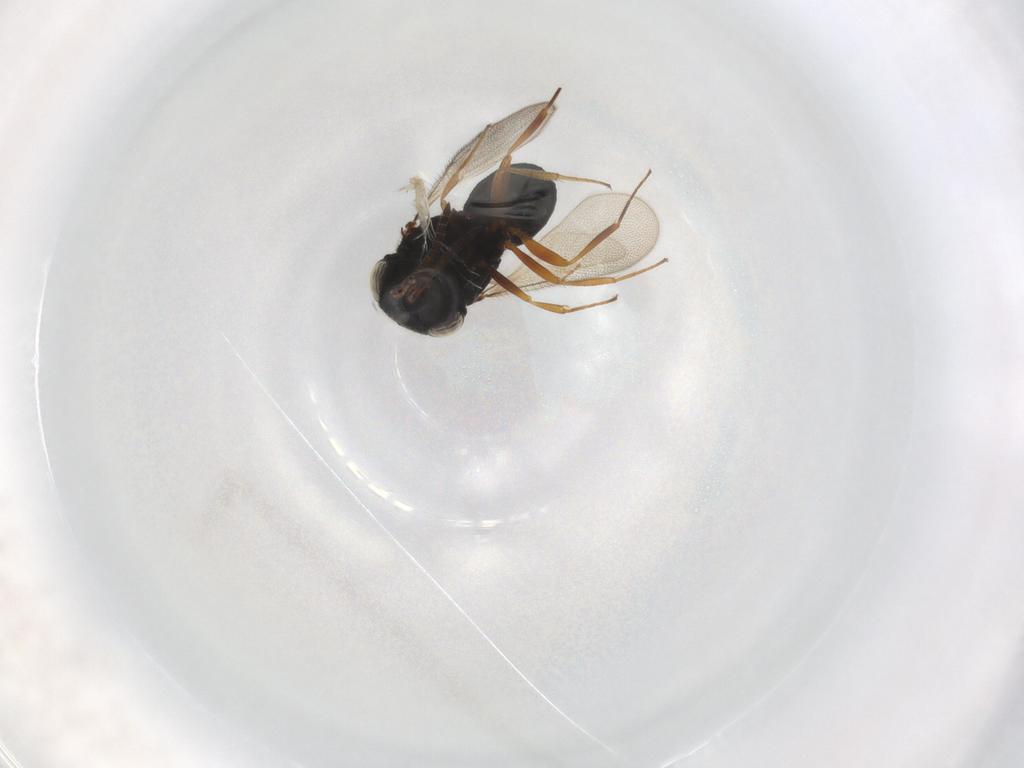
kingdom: Animalia
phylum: Arthropoda
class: Insecta
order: Hymenoptera
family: Scelionidae
